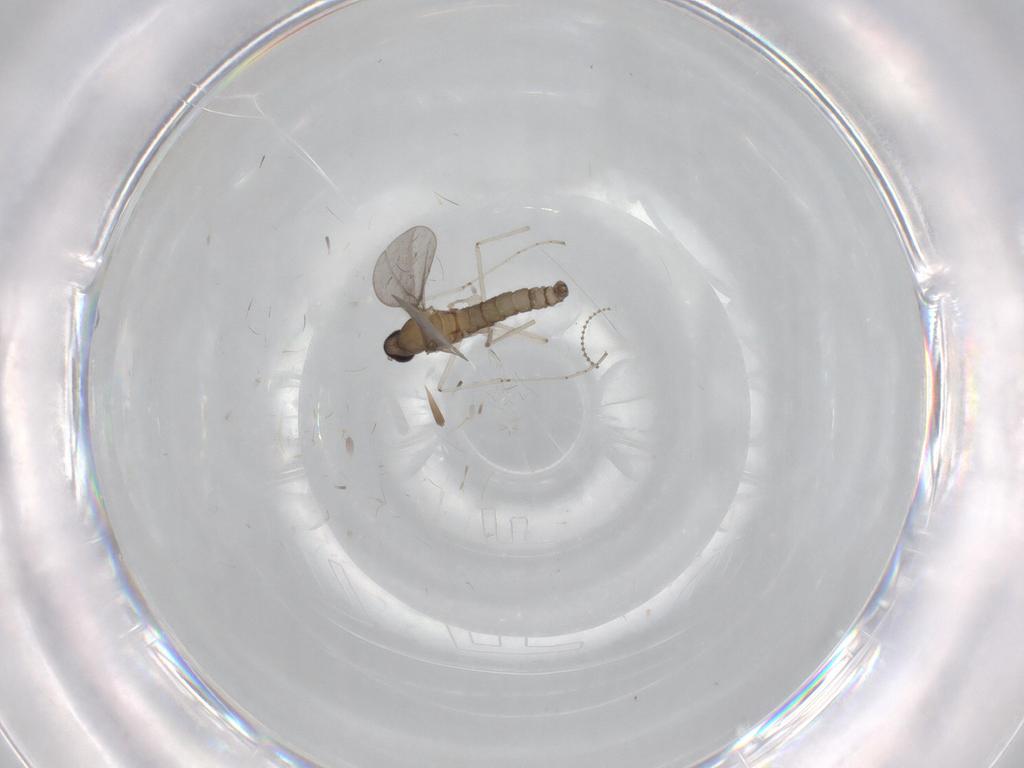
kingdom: Animalia
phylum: Arthropoda
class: Insecta
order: Diptera
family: Cecidomyiidae
